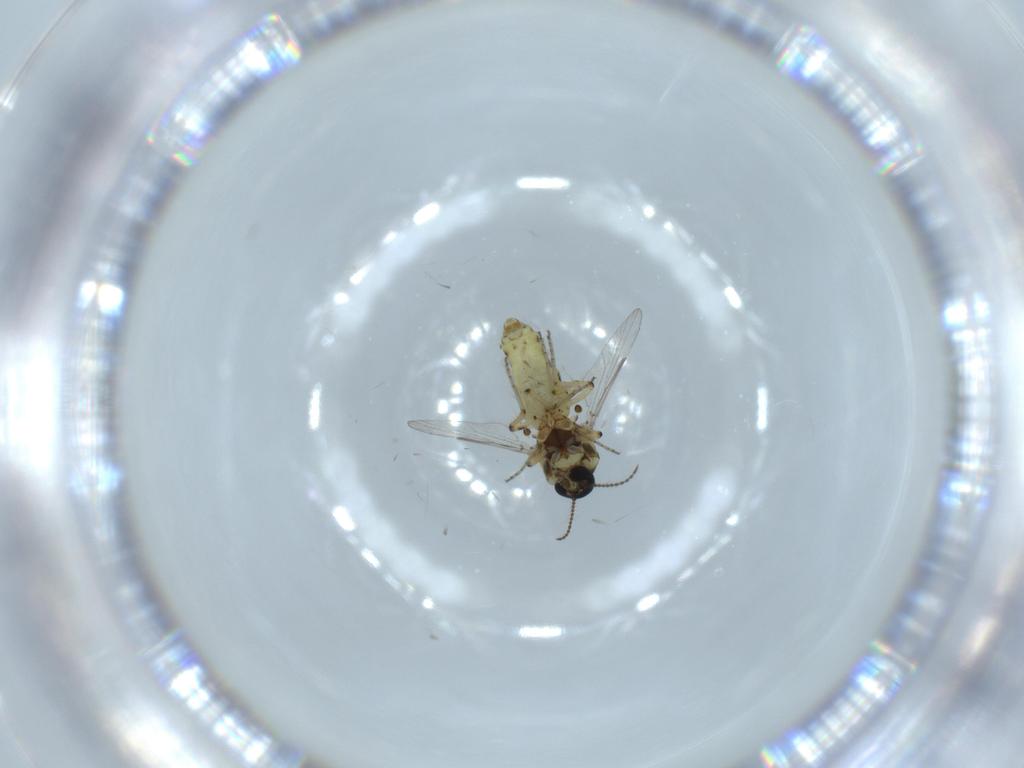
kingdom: Animalia
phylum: Arthropoda
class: Insecta
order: Diptera
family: Ceratopogonidae
